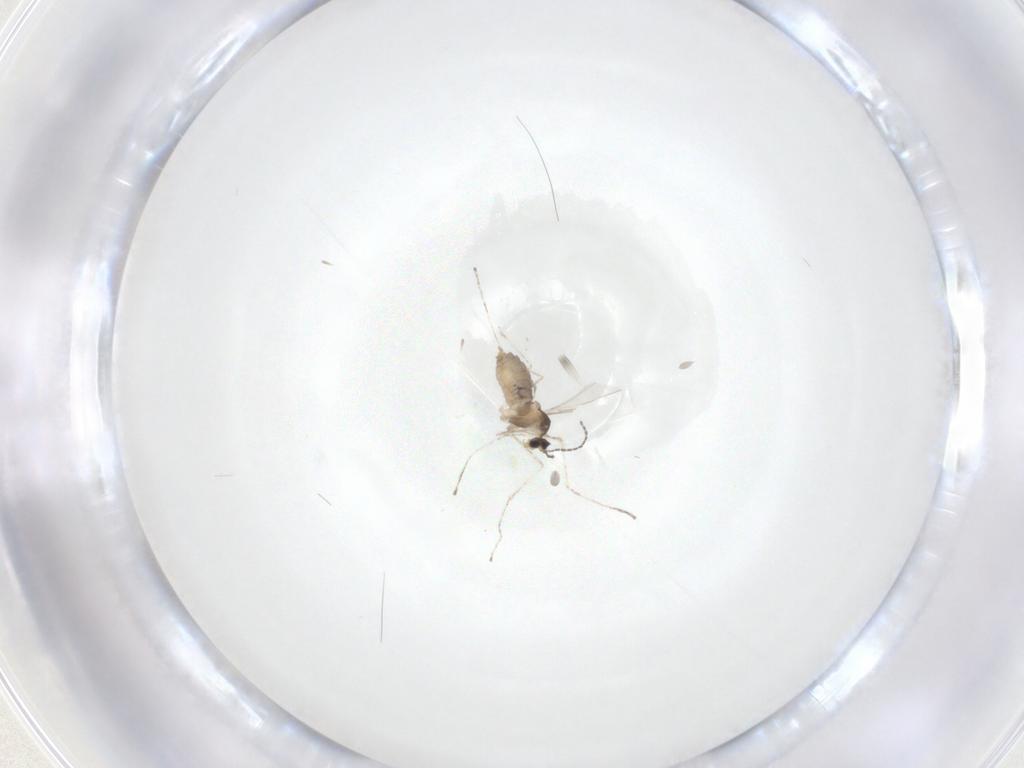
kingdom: Animalia
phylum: Arthropoda
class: Insecta
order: Diptera
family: Cecidomyiidae
